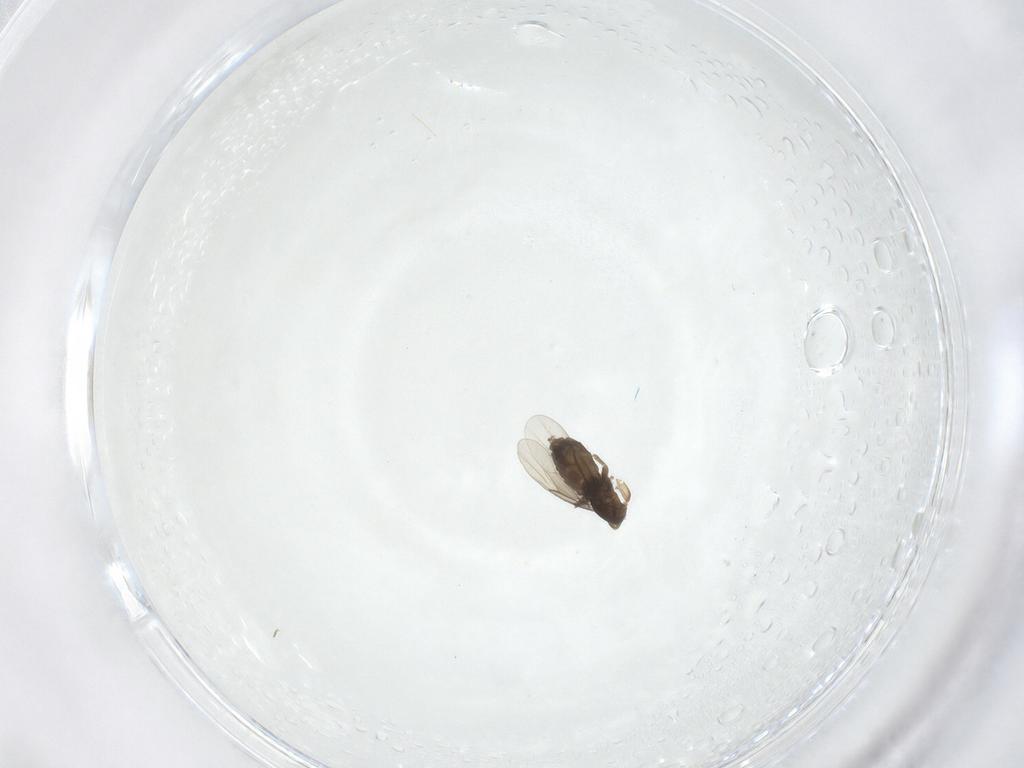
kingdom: Animalia
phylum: Arthropoda
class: Insecta
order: Diptera
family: Phoridae
